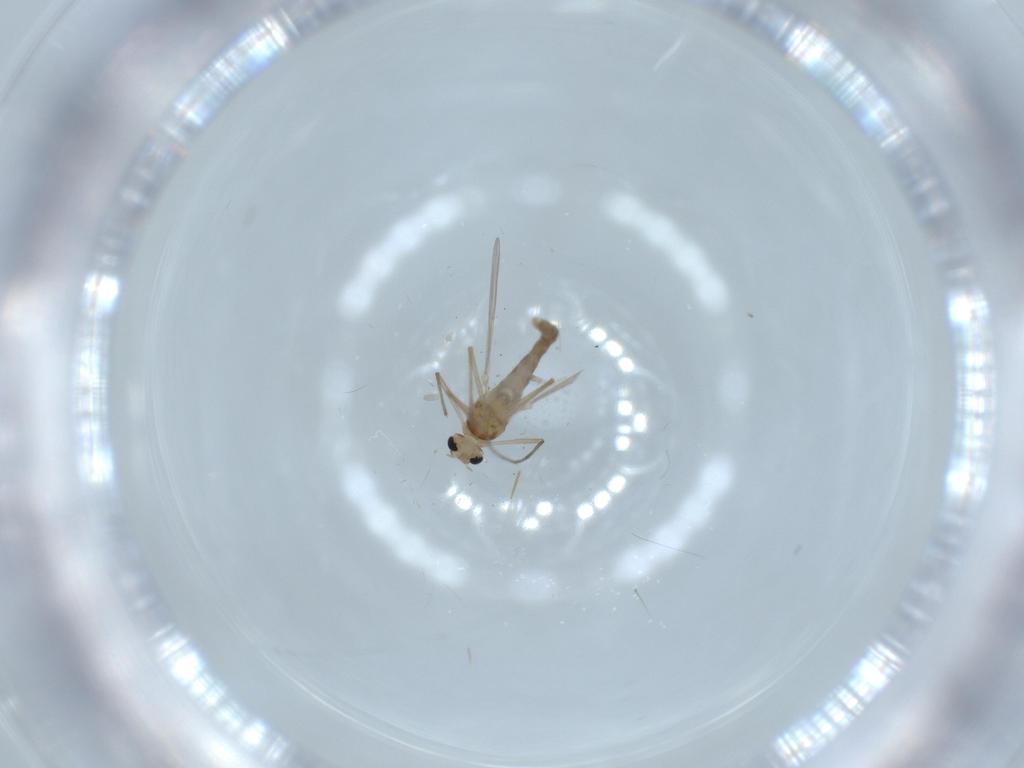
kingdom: Animalia
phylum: Arthropoda
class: Insecta
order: Diptera
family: Chironomidae
